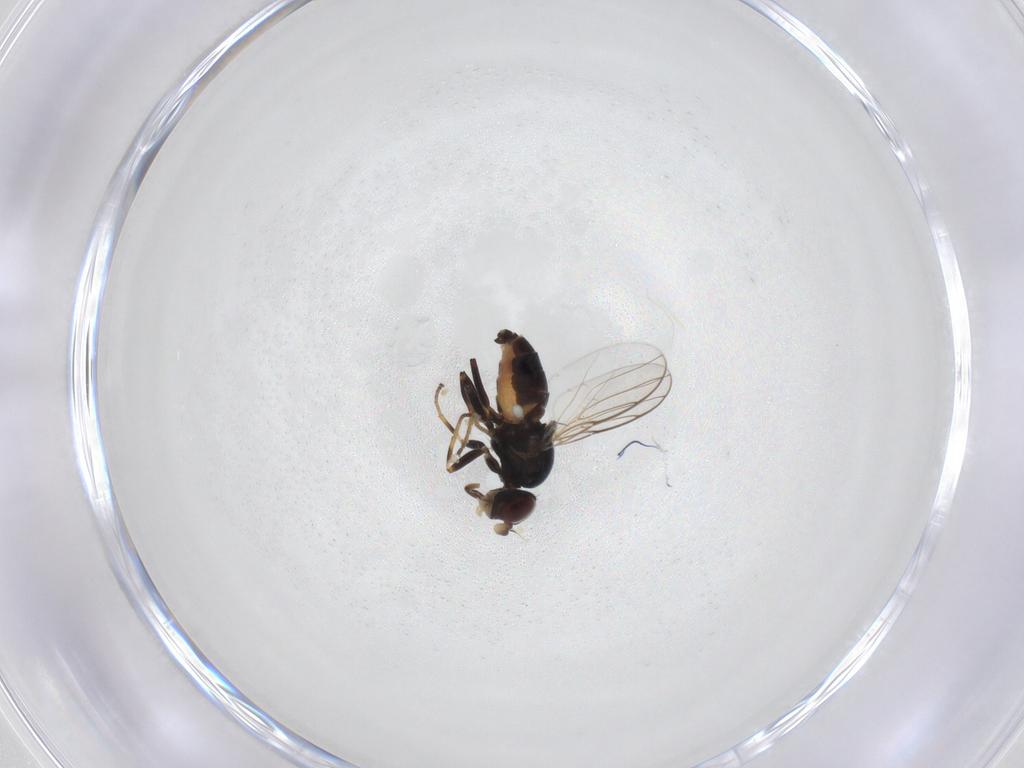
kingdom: Animalia
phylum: Arthropoda
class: Insecta
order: Diptera
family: Chloropidae
